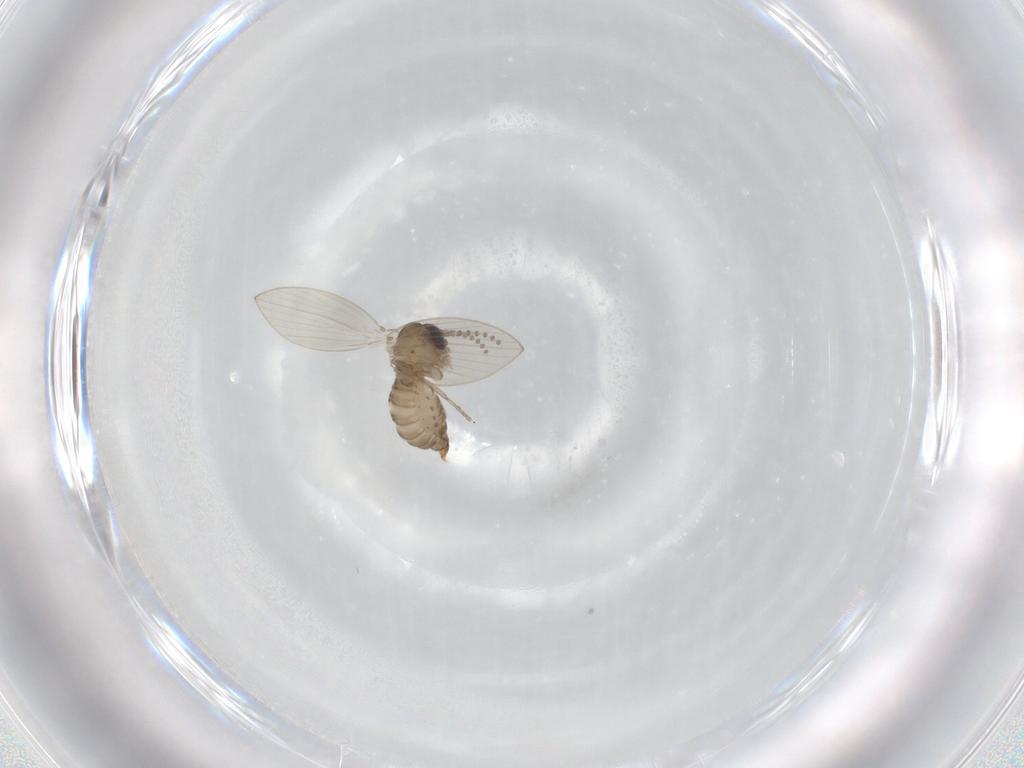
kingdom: Animalia
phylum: Arthropoda
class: Insecta
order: Diptera
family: Psychodidae
